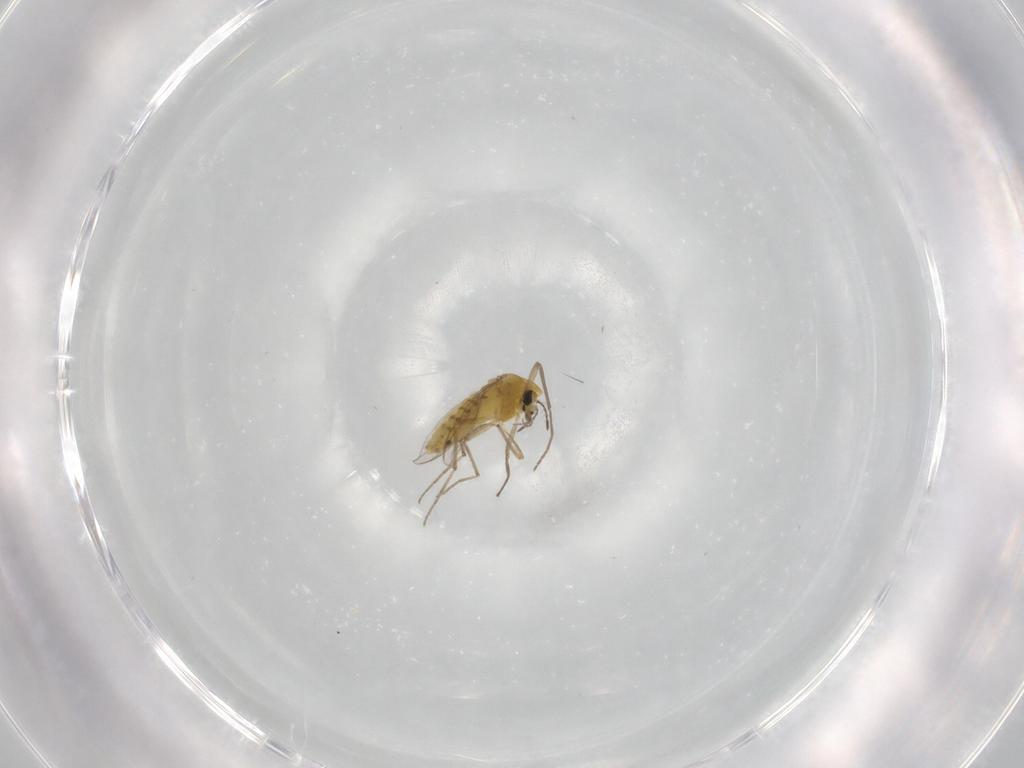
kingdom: Animalia
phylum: Arthropoda
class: Insecta
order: Diptera
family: Chironomidae
